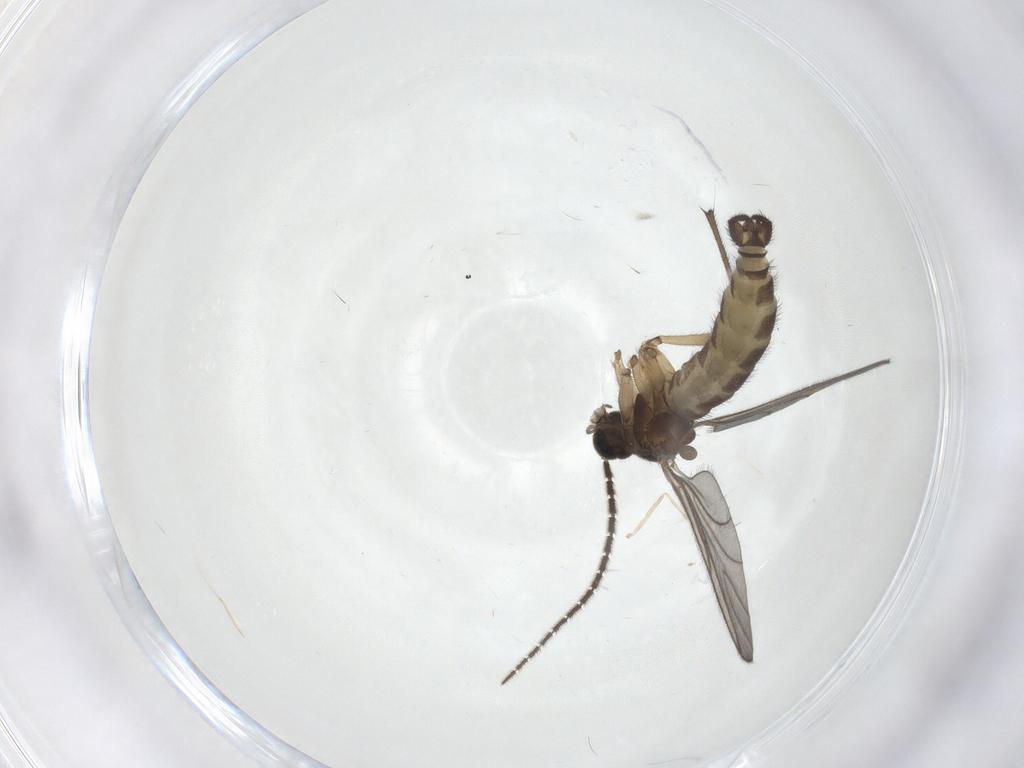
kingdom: Animalia
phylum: Arthropoda
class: Insecta
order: Diptera
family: Sciaridae
